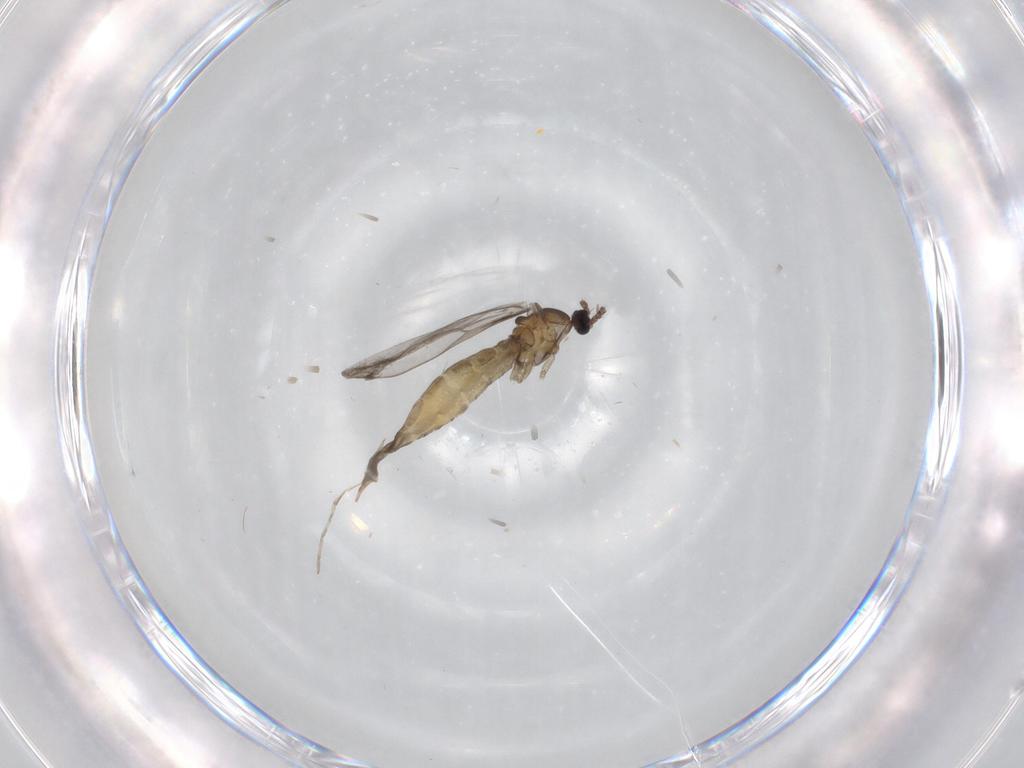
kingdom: Animalia
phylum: Arthropoda
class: Insecta
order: Diptera
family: Cecidomyiidae
